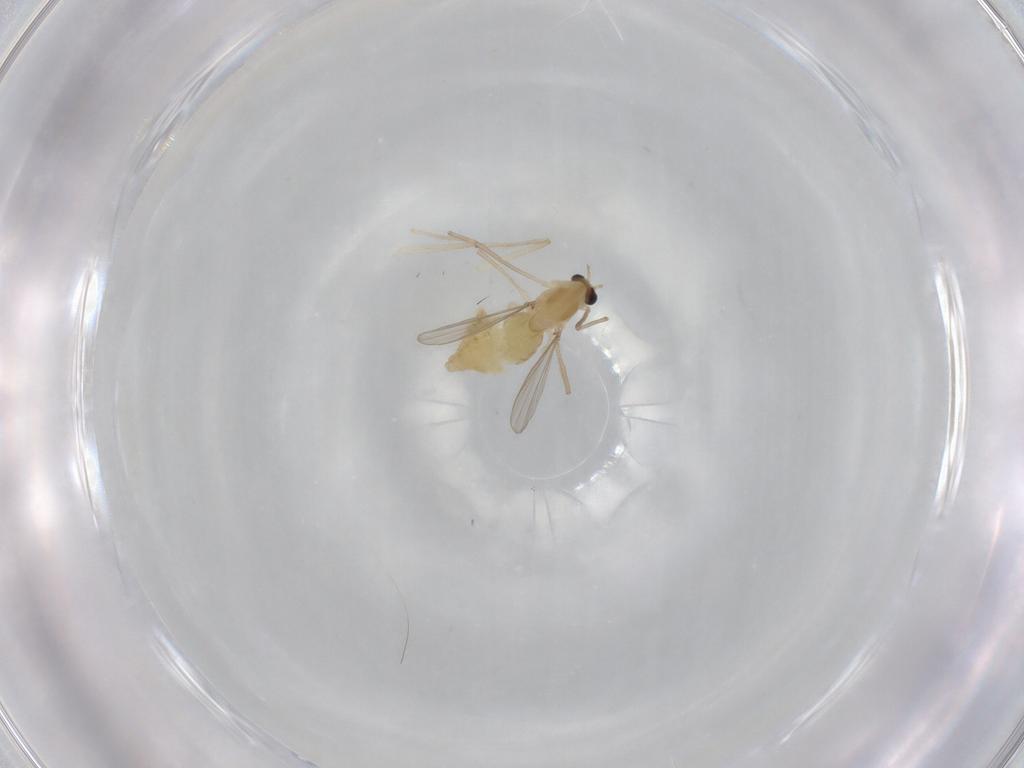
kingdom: Animalia
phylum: Arthropoda
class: Insecta
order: Diptera
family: Chironomidae
